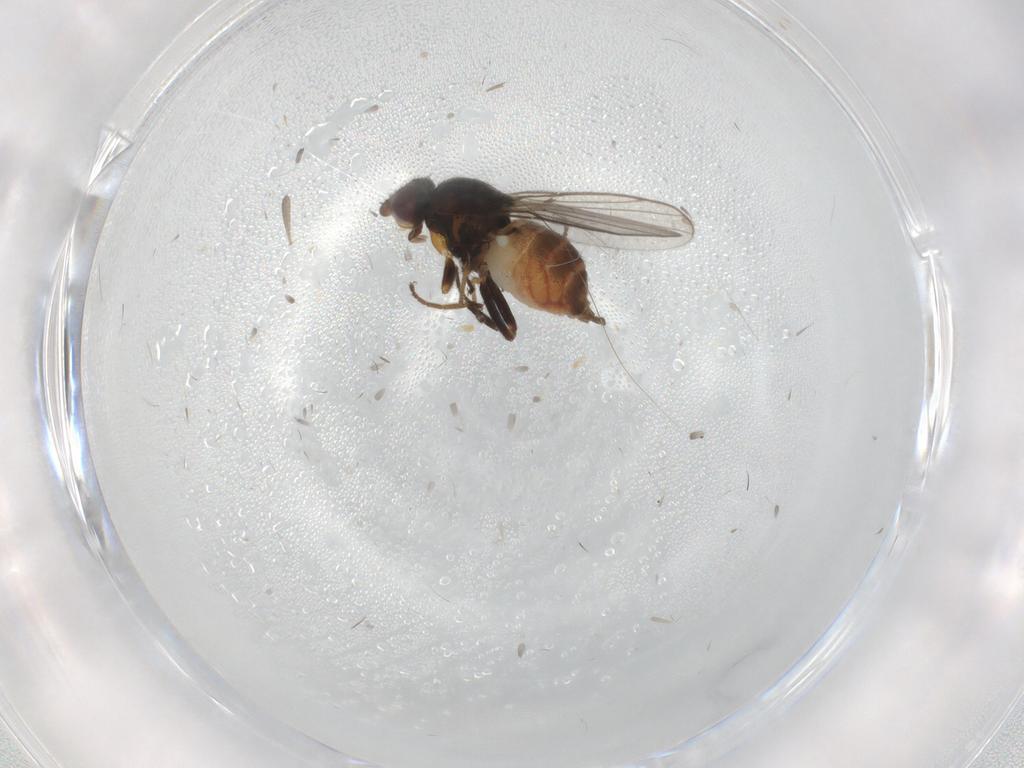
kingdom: Animalia
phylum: Arthropoda
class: Insecta
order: Diptera
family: Chloropidae
